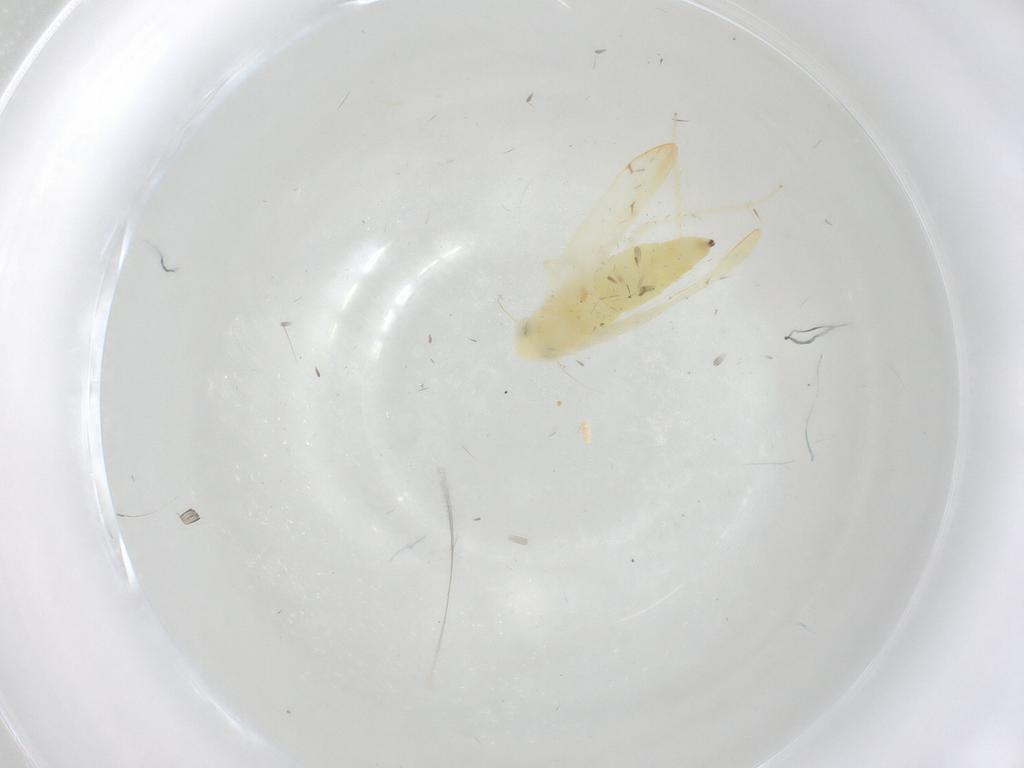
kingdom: Animalia
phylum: Arthropoda
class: Insecta
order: Hemiptera
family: Cicadellidae
